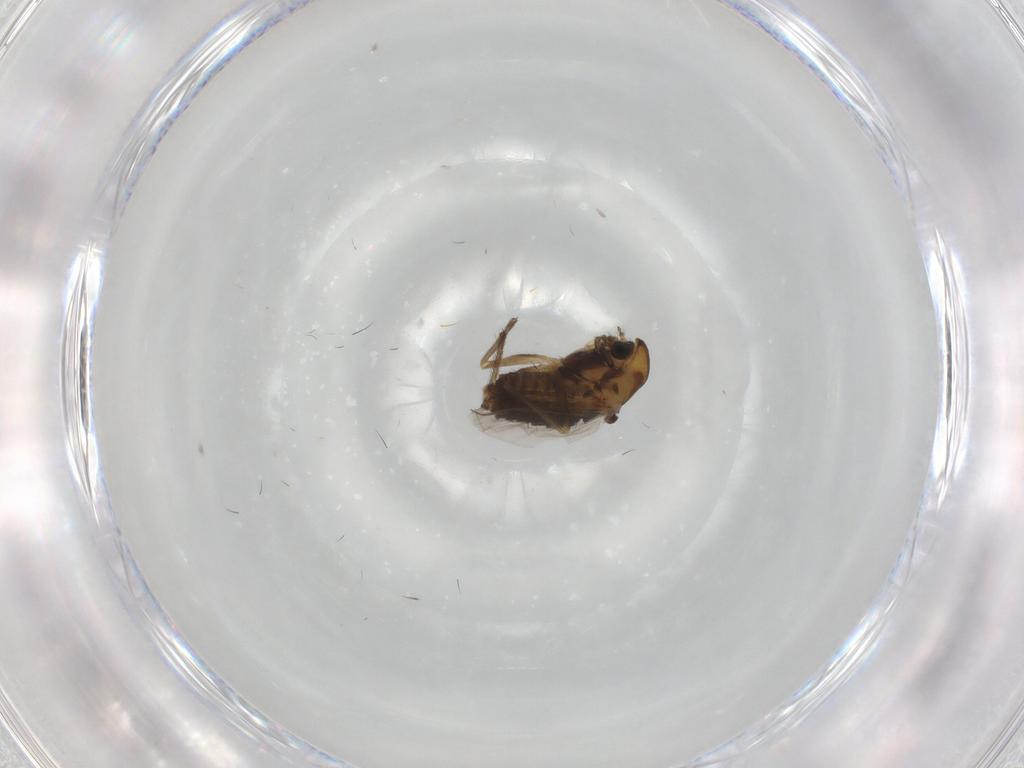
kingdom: Animalia
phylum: Arthropoda
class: Insecta
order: Diptera
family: Chironomidae
